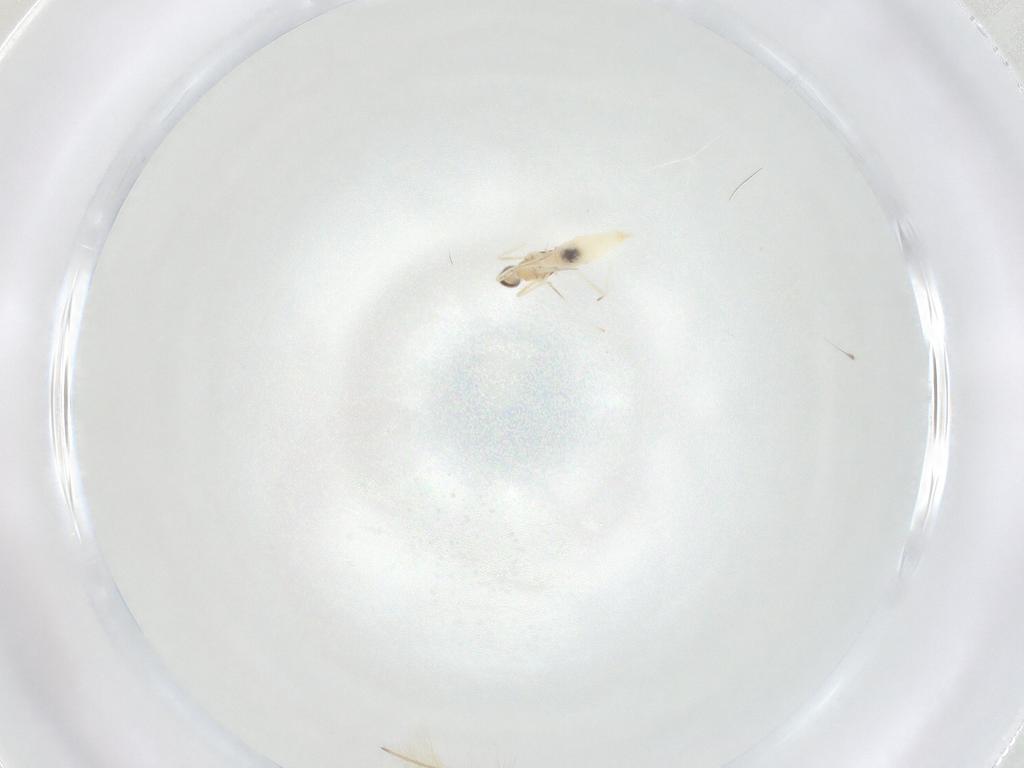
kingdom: Animalia
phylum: Arthropoda
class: Insecta
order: Diptera
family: Cecidomyiidae
